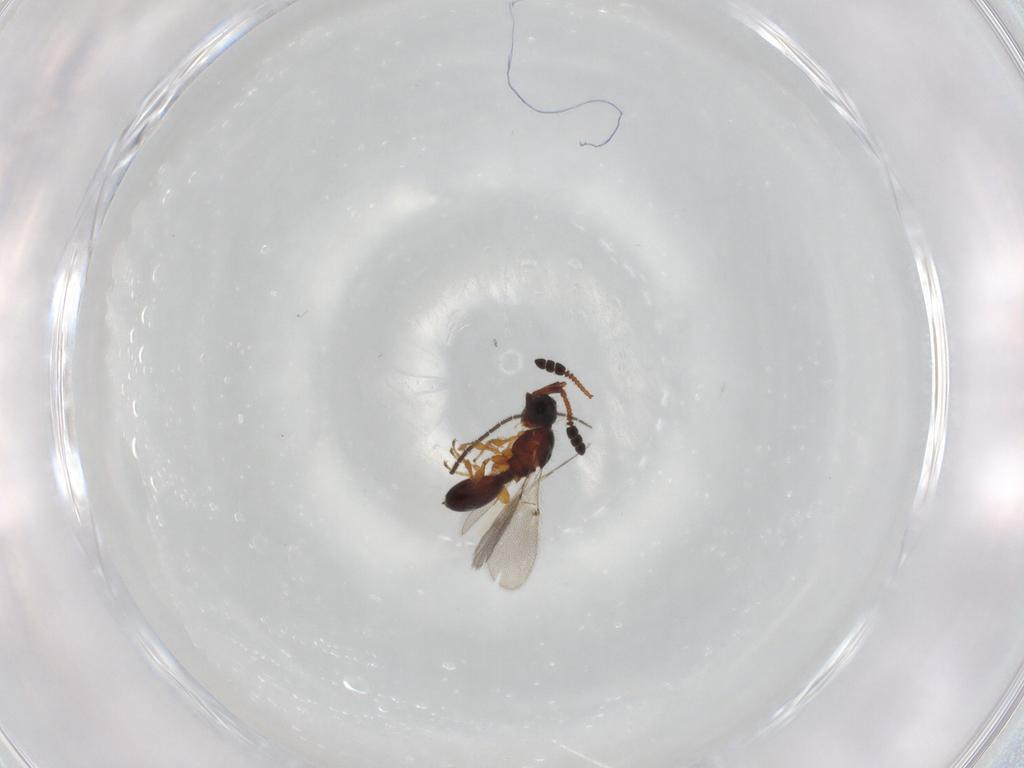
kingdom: Animalia
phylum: Arthropoda
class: Insecta
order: Hymenoptera
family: Diapriidae
